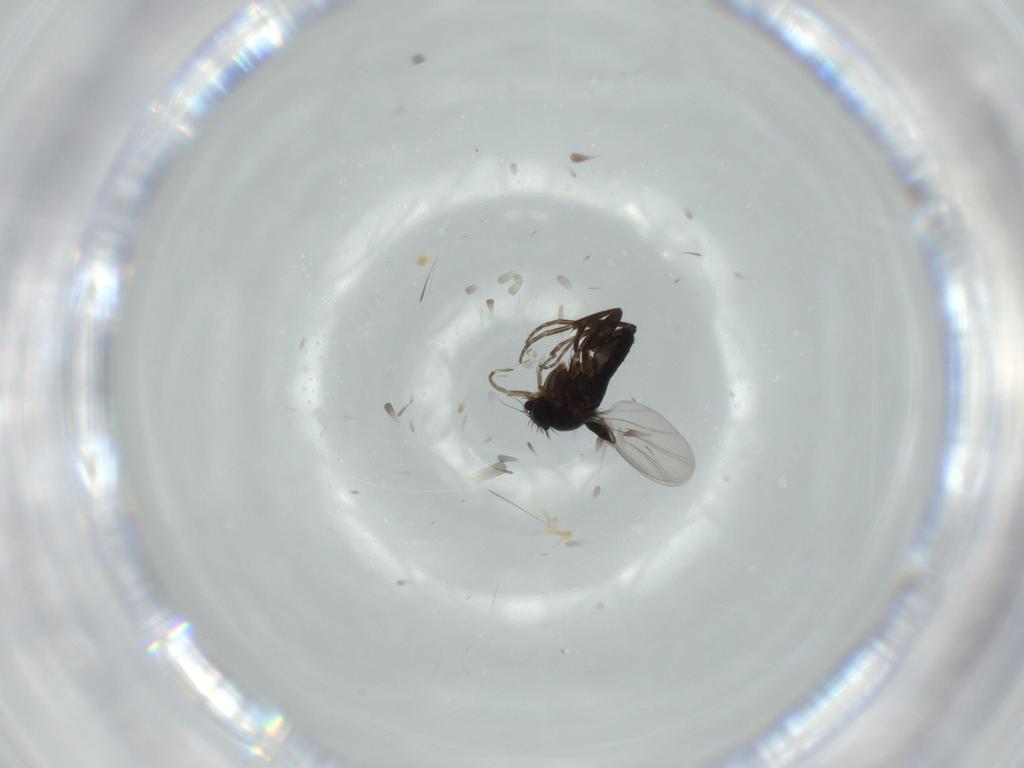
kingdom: Animalia
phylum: Arthropoda
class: Insecta
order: Diptera
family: Phoridae
